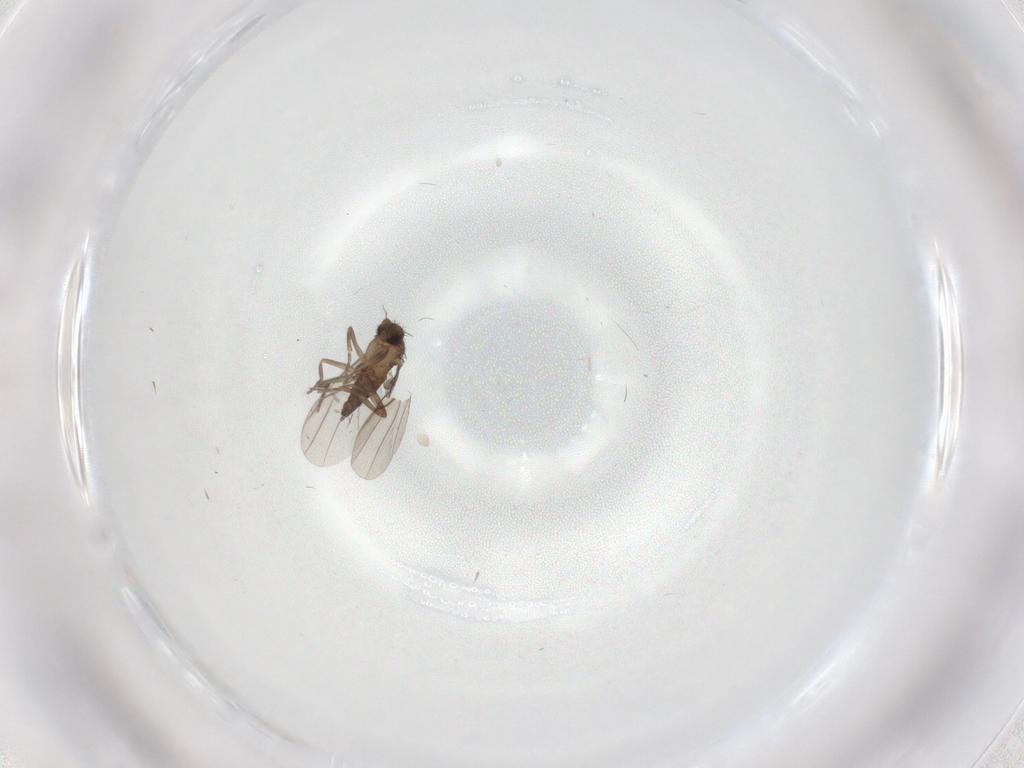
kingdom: Animalia
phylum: Arthropoda
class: Insecta
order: Diptera
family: Phoridae
